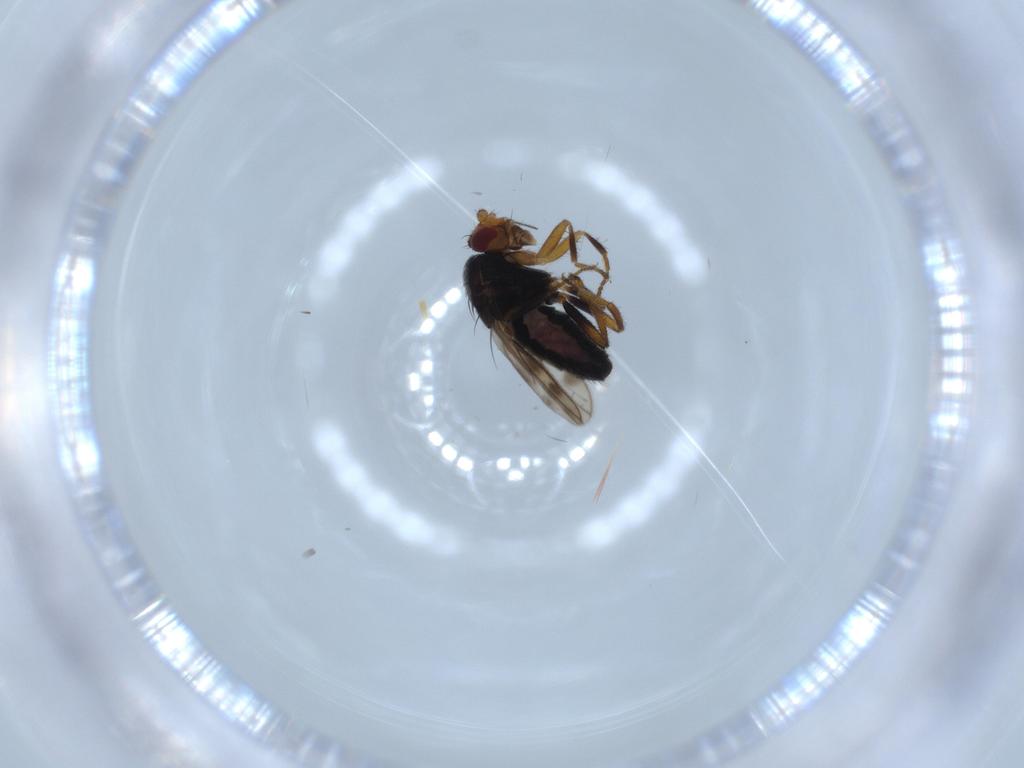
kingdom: Animalia
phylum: Arthropoda
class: Insecta
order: Diptera
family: Sphaeroceridae
